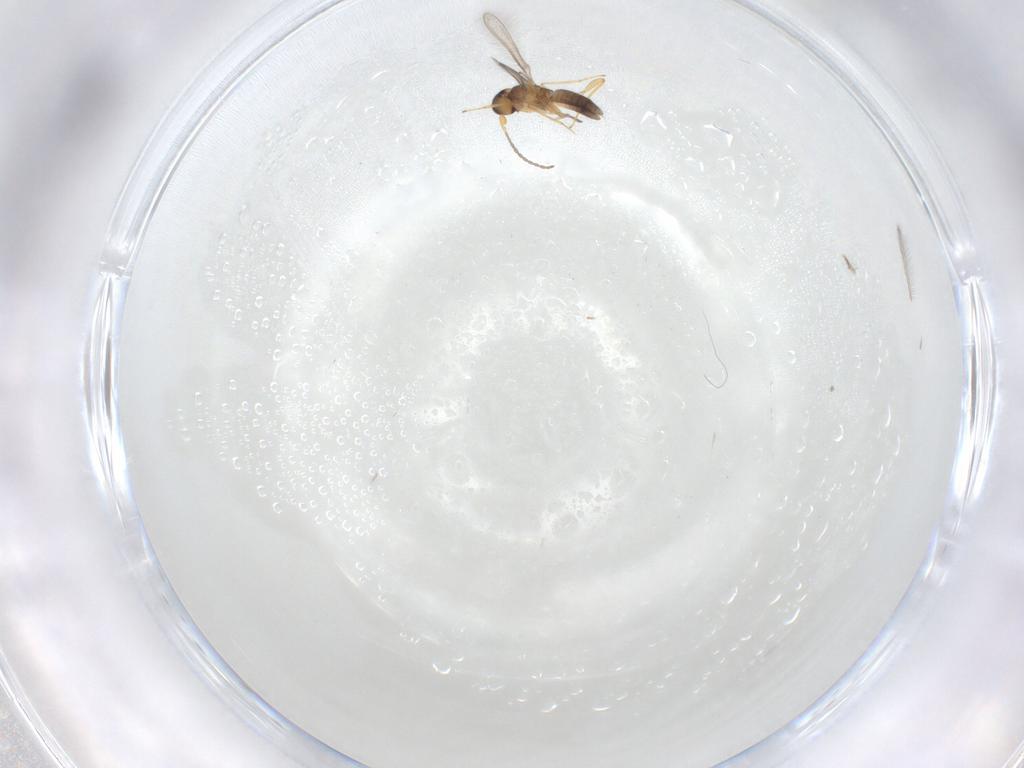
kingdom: Animalia
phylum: Arthropoda
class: Insecta
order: Hymenoptera
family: Mymaridae
